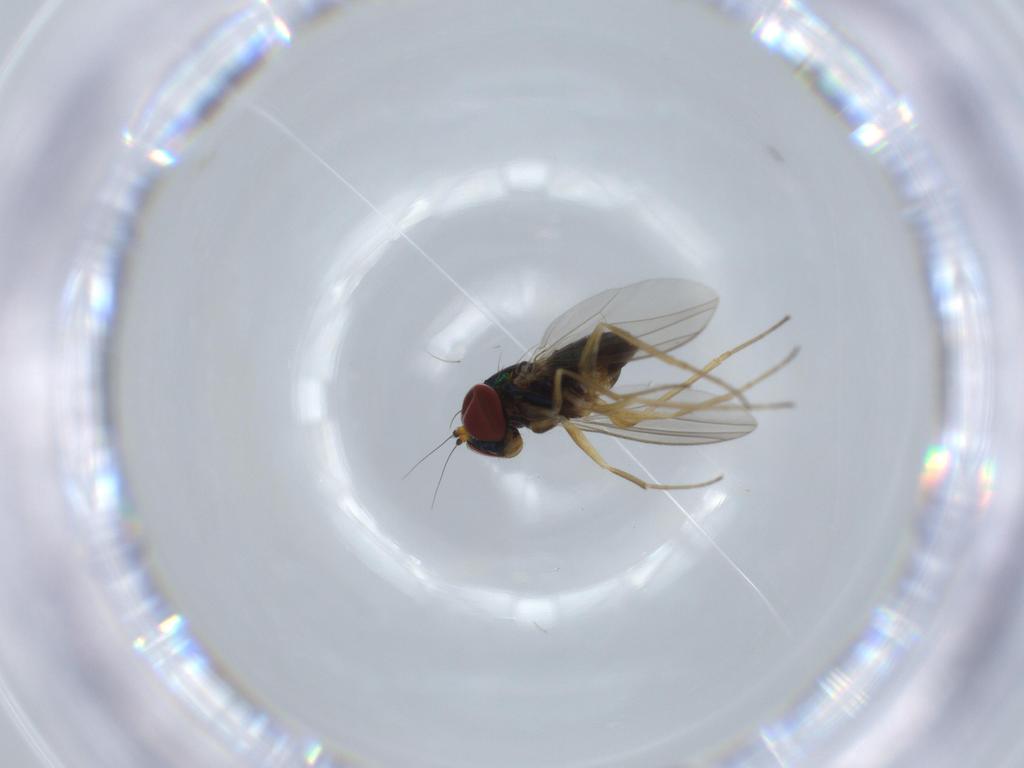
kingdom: Animalia
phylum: Arthropoda
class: Insecta
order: Diptera
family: Dolichopodidae
